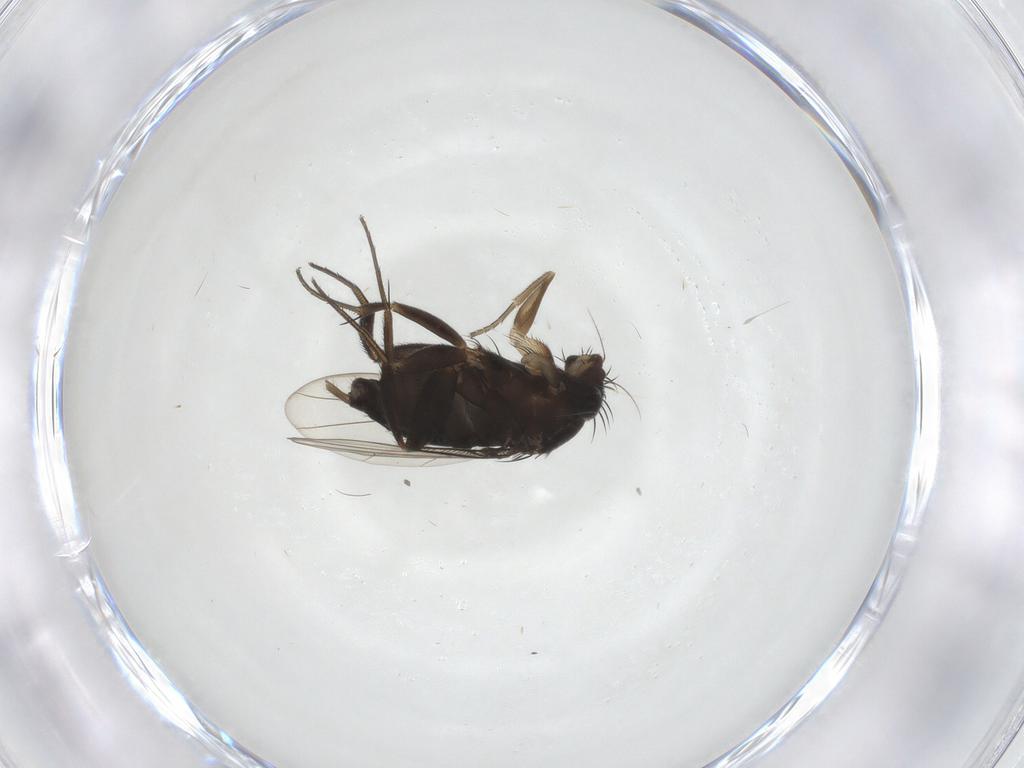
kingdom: Animalia
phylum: Arthropoda
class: Insecta
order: Diptera
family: Phoridae
